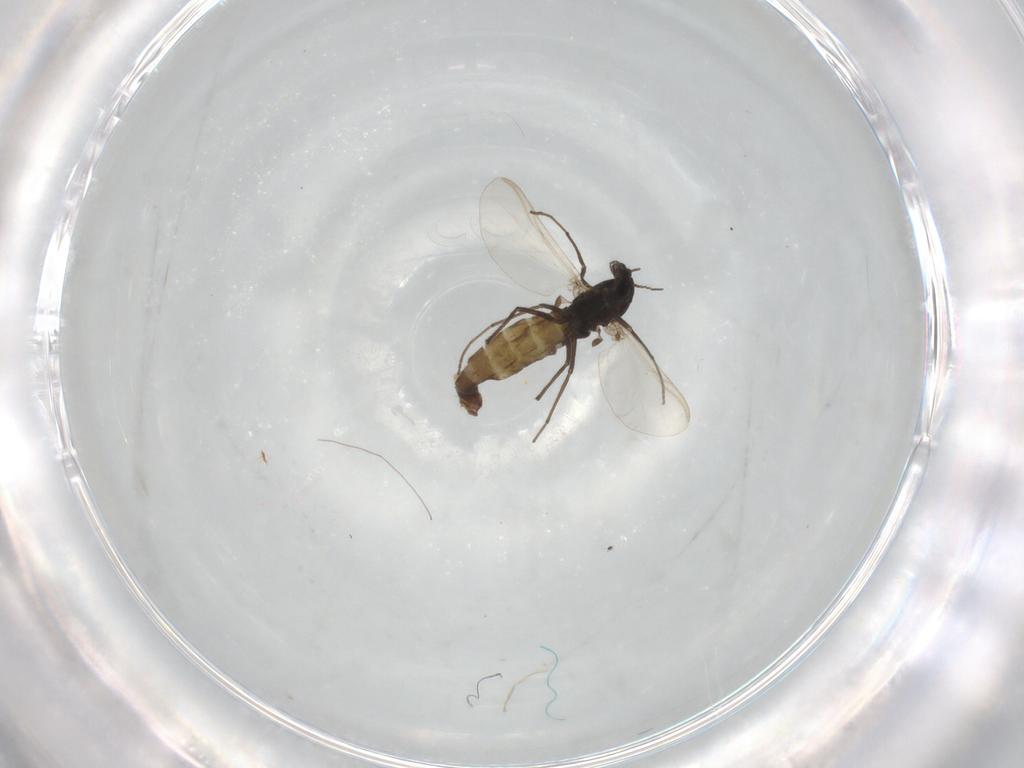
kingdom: Animalia
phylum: Arthropoda
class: Insecta
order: Diptera
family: Chironomidae
